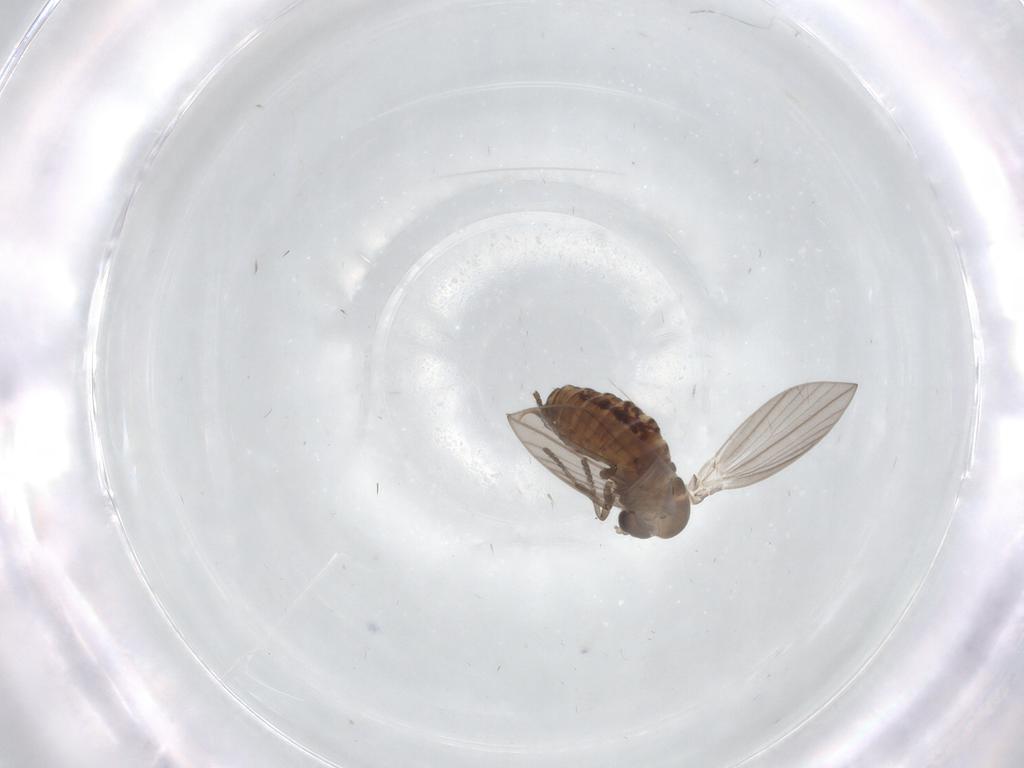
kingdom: Animalia
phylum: Arthropoda
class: Insecta
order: Diptera
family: Psychodidae
